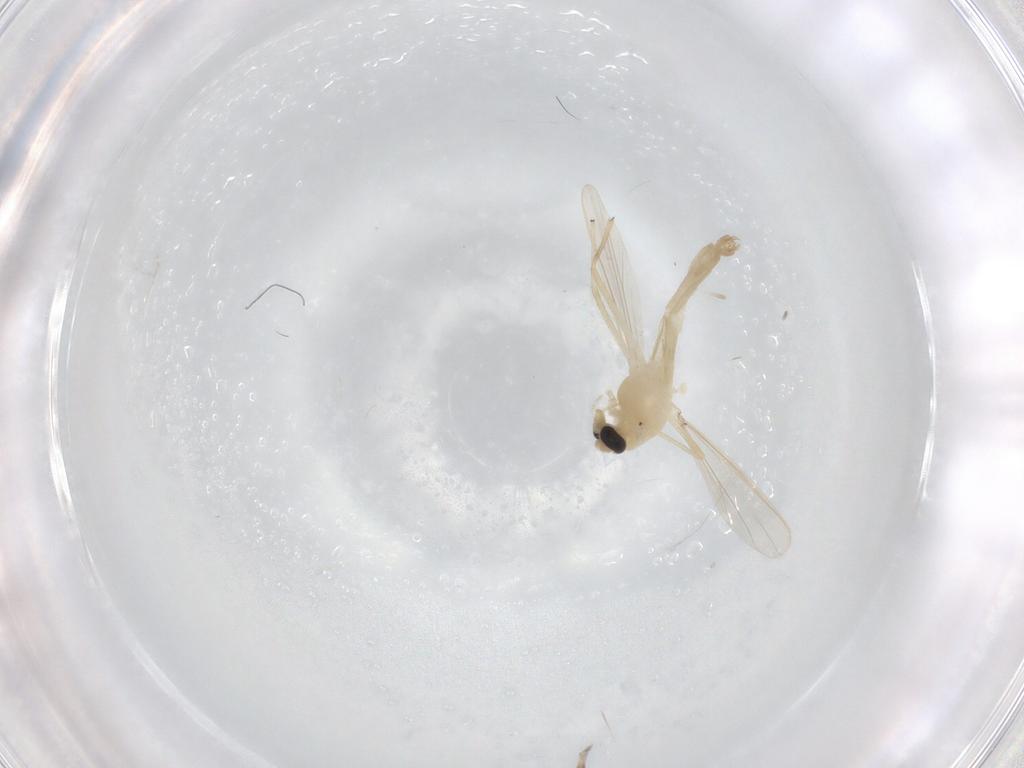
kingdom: Animalia
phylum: Arthropoda
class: Insecta
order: Diptera
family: Chironomidae
